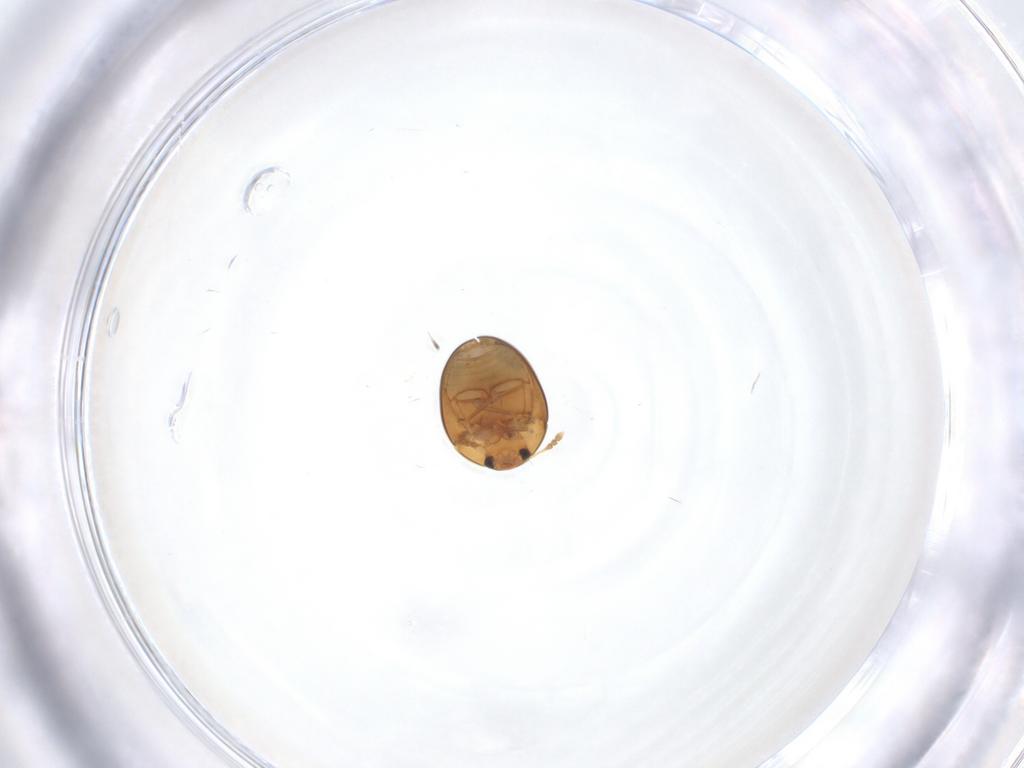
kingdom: Animalia
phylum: Arthropoda
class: Insecta
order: Coleoptera
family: Phalacridae
